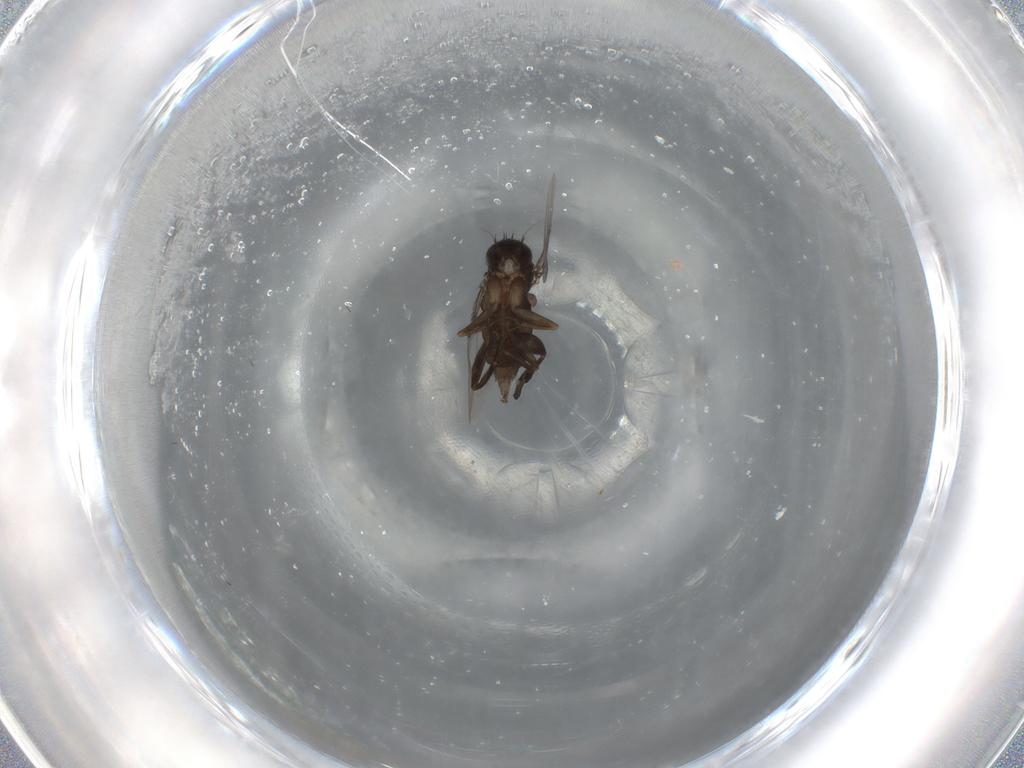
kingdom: Animalia
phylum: Arthropoda
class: Insecta
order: Diptera
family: Phoridae
